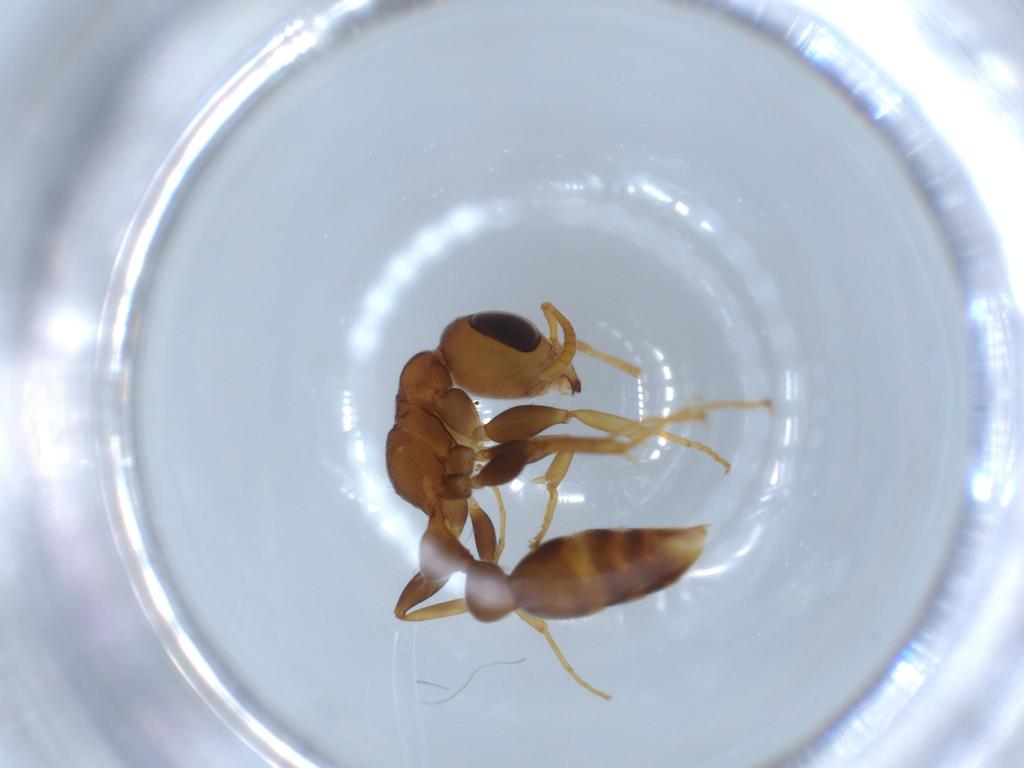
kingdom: Animalia
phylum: Arthropoda
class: Insecta
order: Hymenoptera
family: Formicidae
